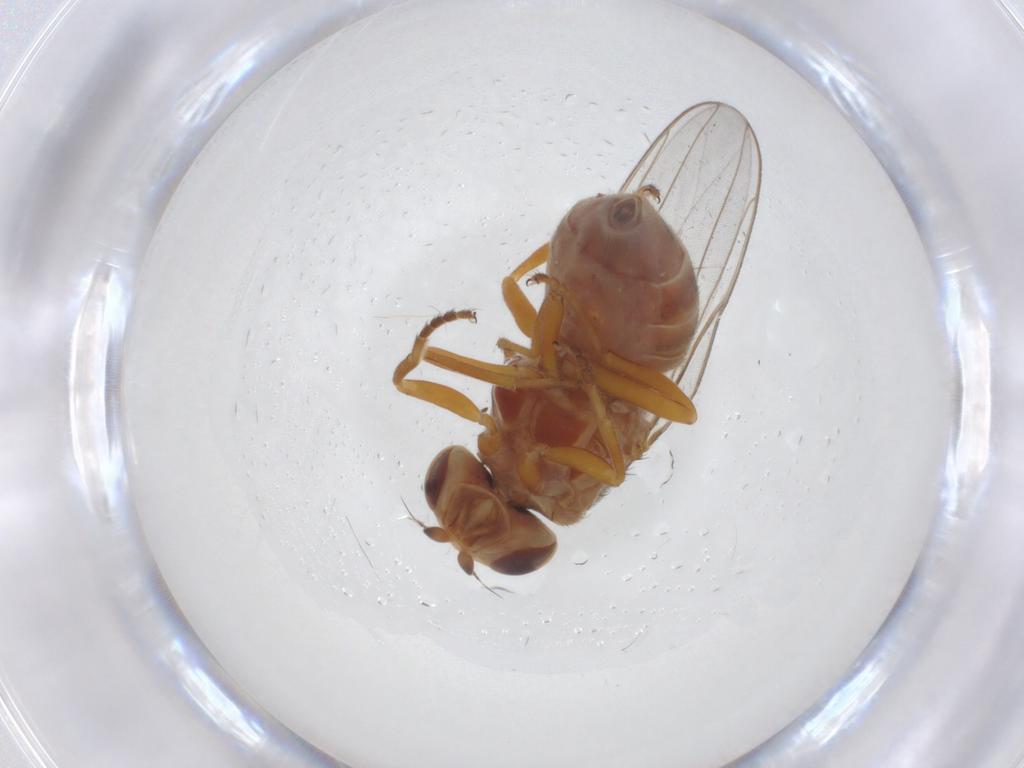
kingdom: Animalia
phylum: Arthropoda
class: Insecta
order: Diptera
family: Chloropidae
